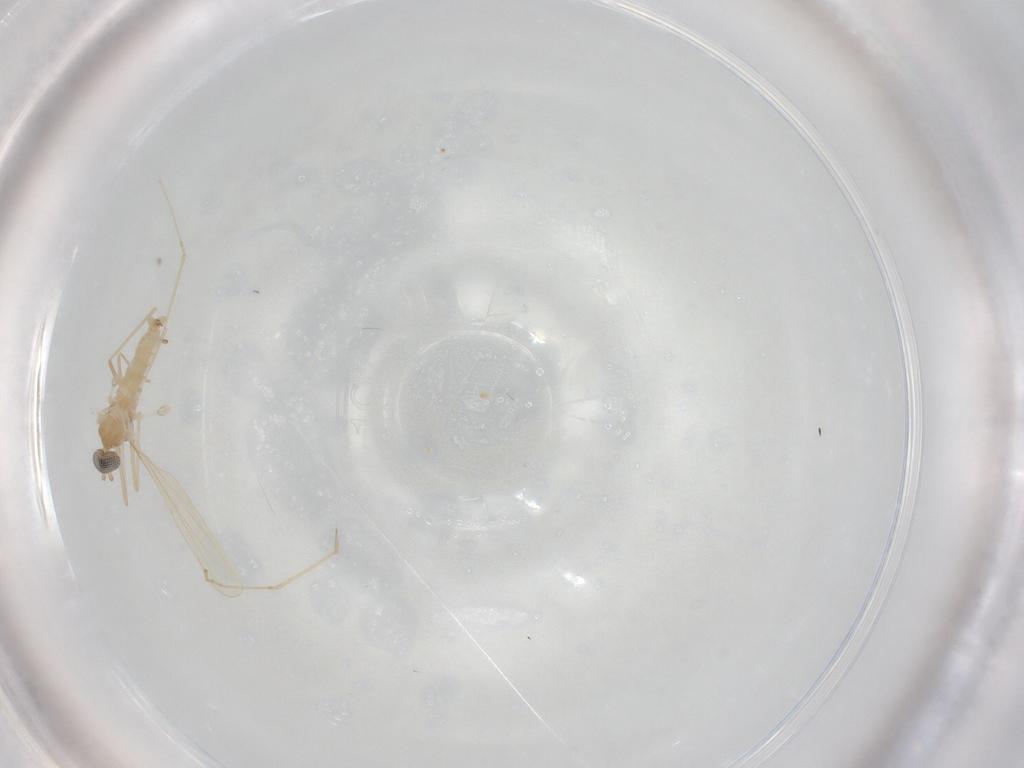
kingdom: Animalia
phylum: Arthropoda
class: Insecta
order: Diptera
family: Cecidomyiidae
